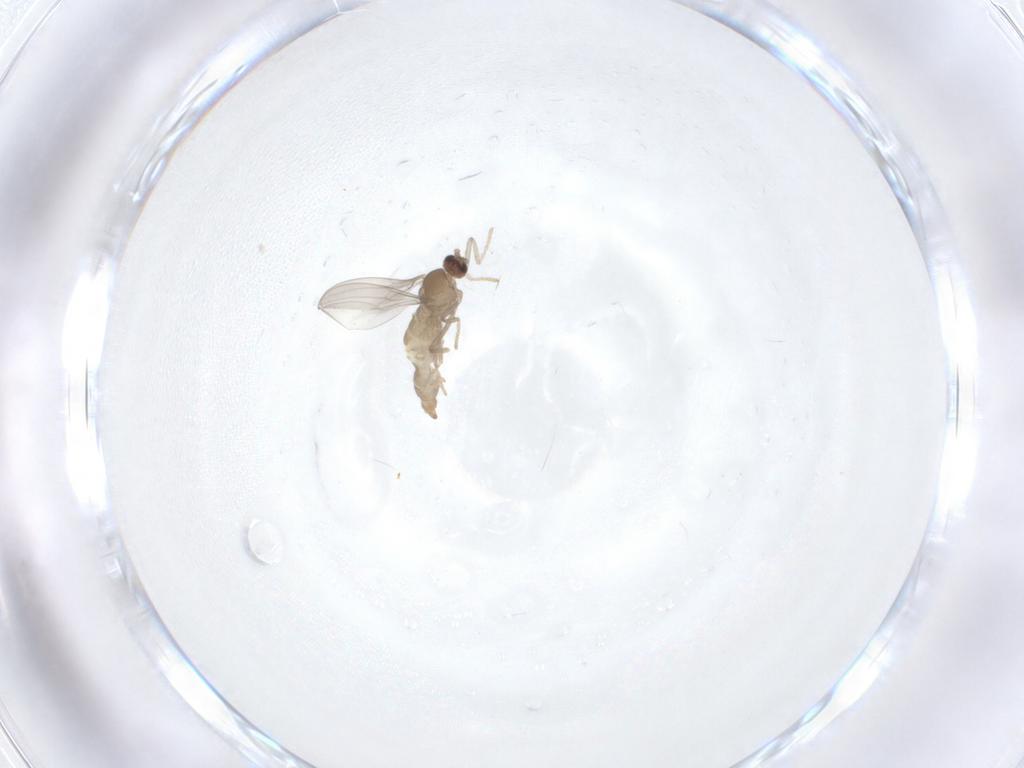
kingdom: Animalia
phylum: Arthropoda
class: Insecta
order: Diptera
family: Cecidomyiidae
